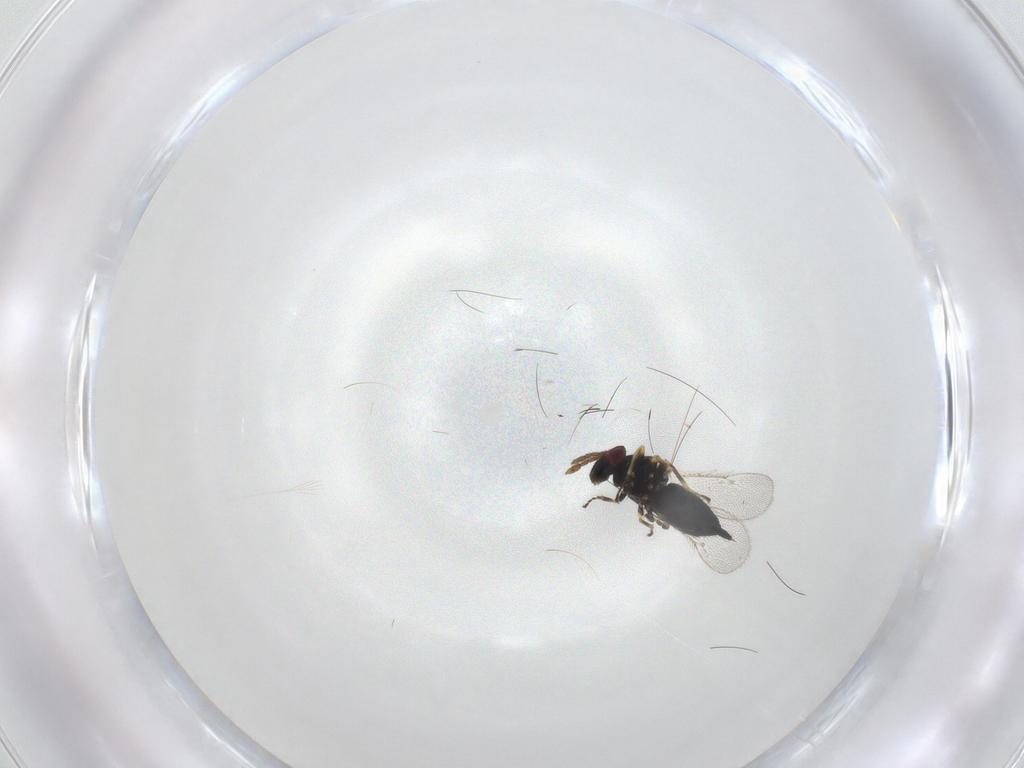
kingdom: Animalia
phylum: Arthropoda
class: Insecta
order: Hymenoptera
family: Eulophidae
